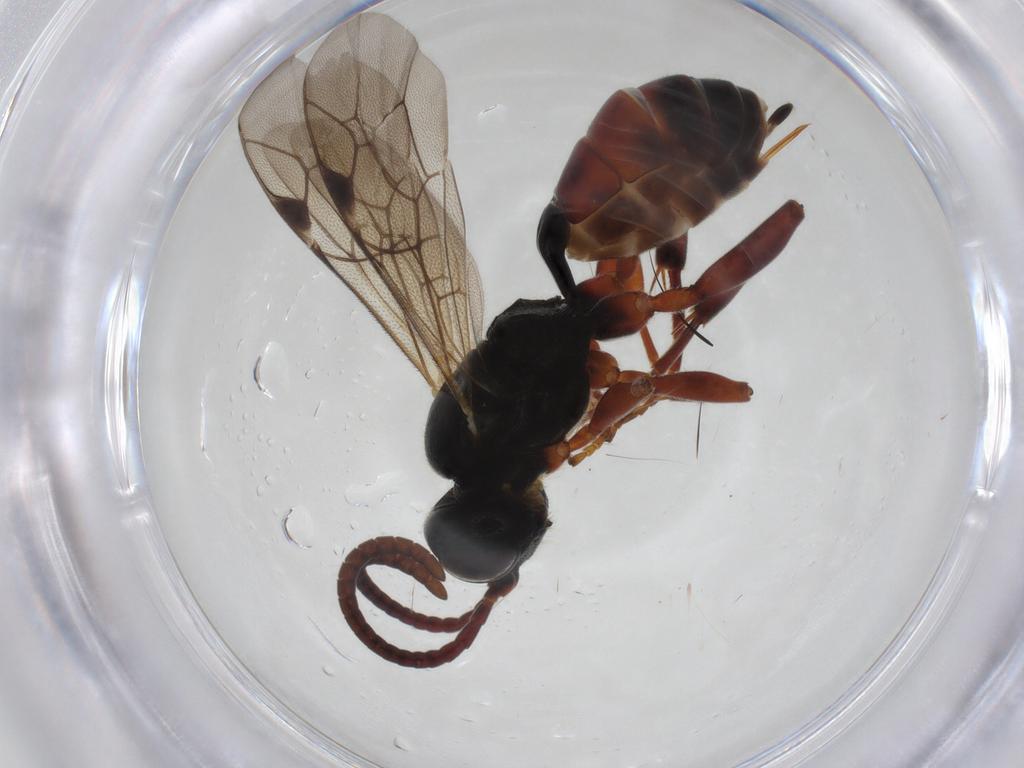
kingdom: Animalia
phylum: Arthropoda
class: Insecta
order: Hymenoptera
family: Ichneumonidae
